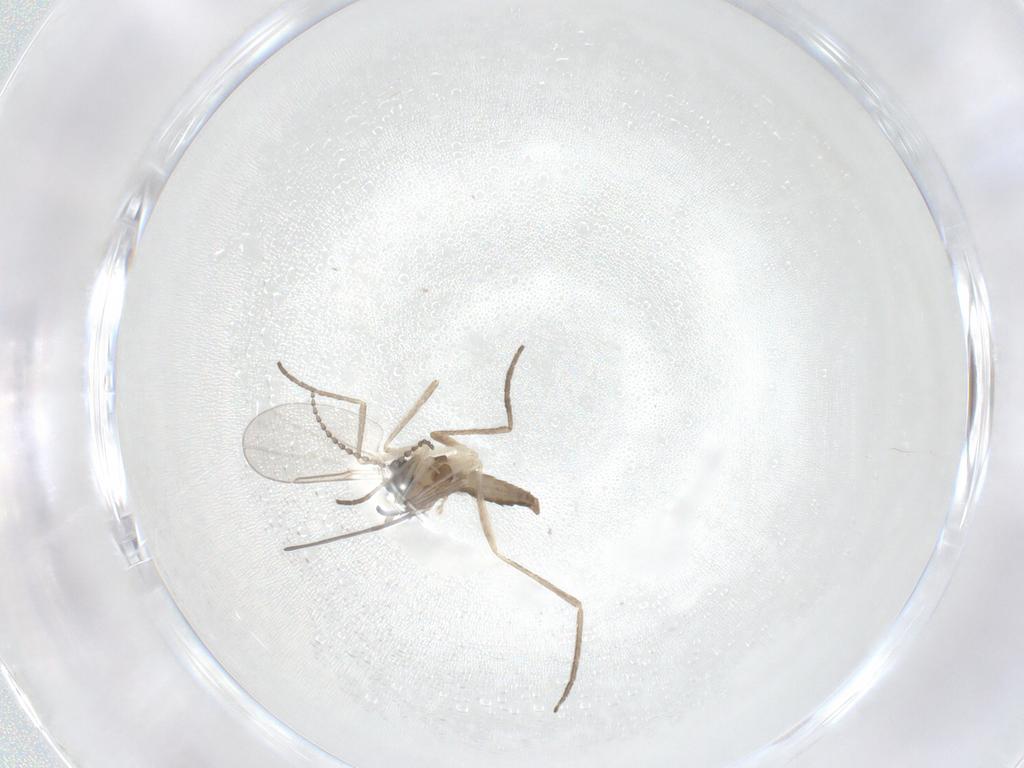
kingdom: Animalia
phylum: Arthropoda
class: Insecta
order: Diptera
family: Cecidomyiidae
